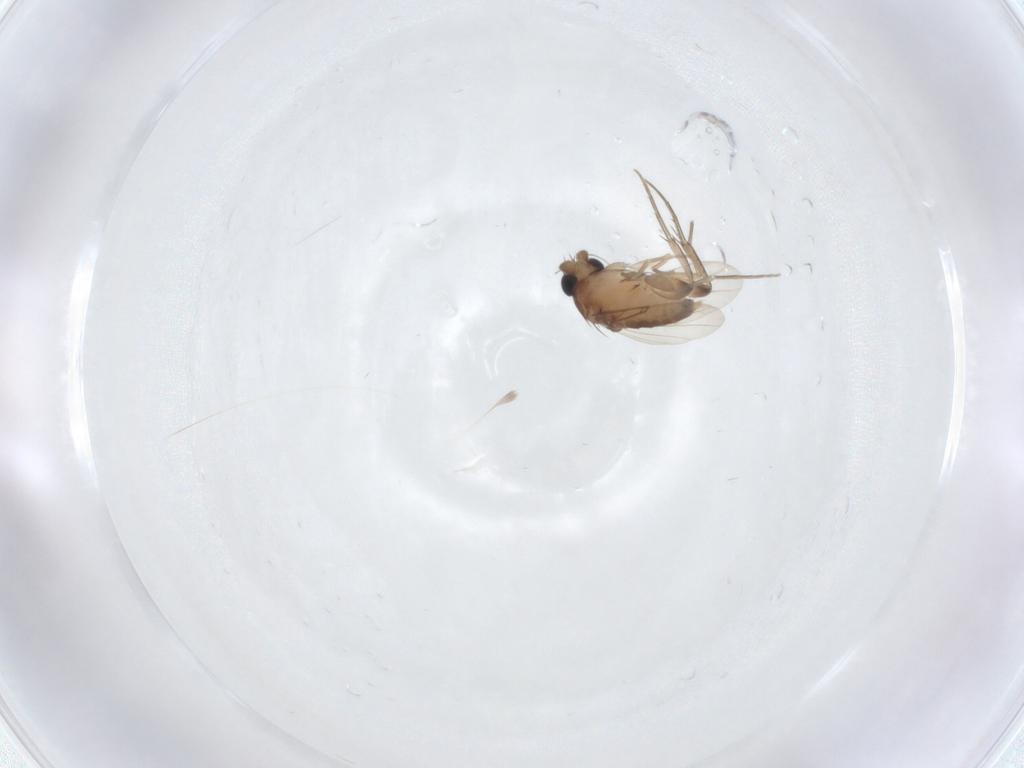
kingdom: Animalia
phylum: Arthropoda
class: Insecta
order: Diptera
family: Phoridae
